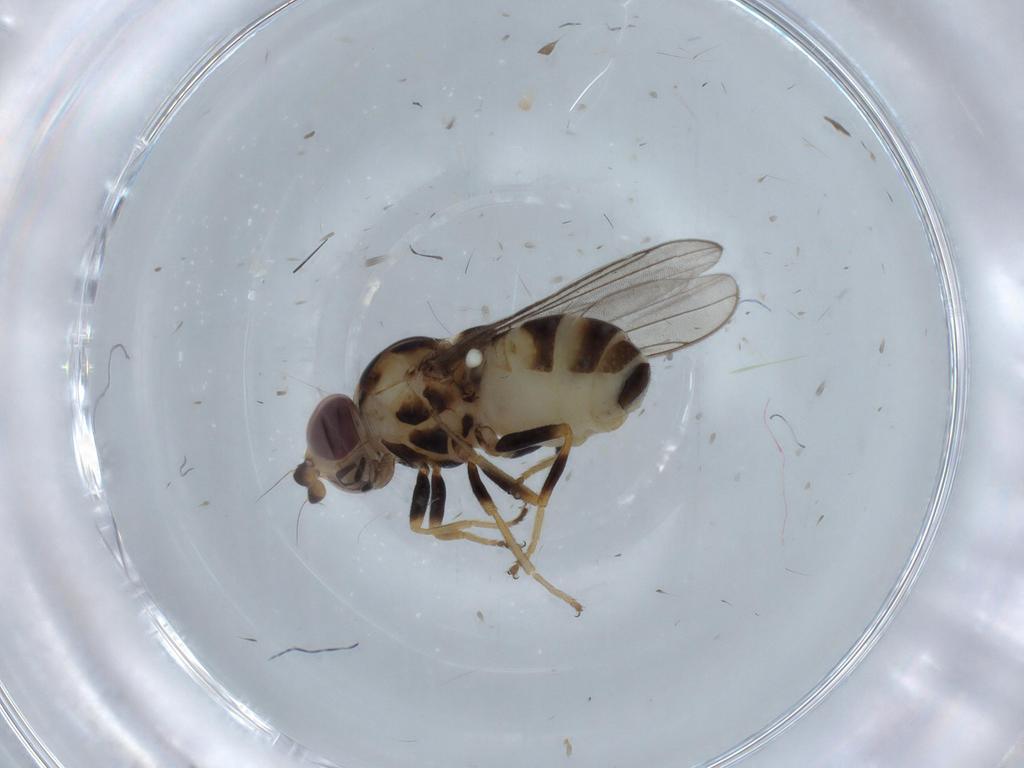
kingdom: Animalia
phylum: Arthropoda
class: Insecta
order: Diptera
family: Chloropidae
